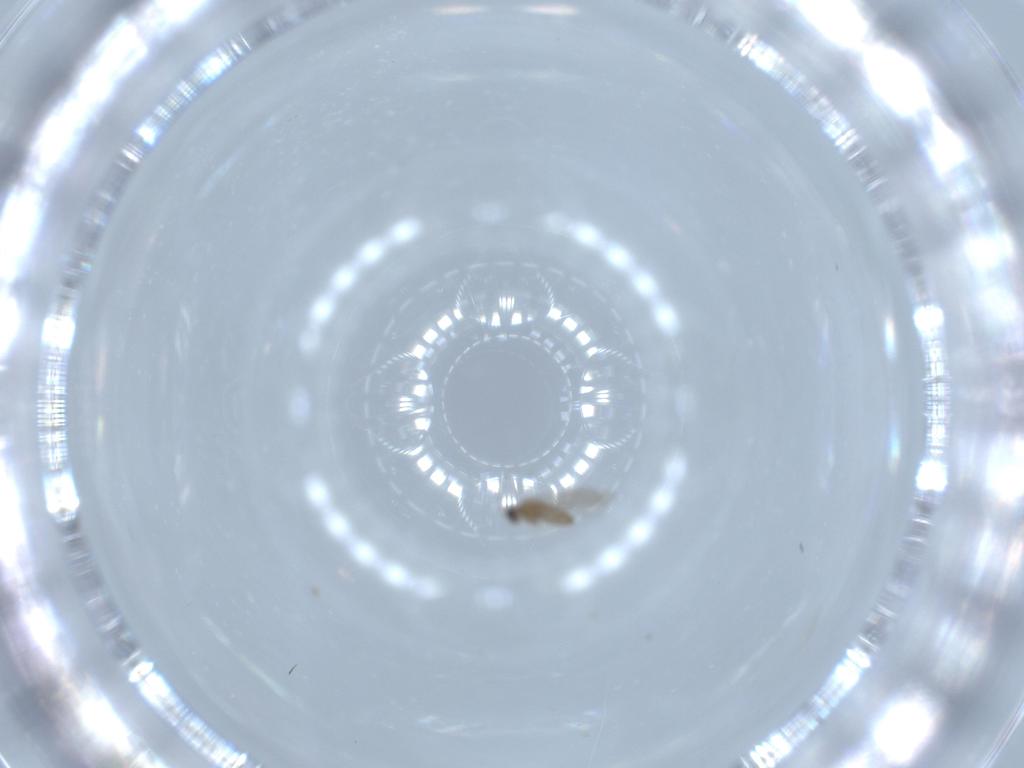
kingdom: Animalia
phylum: Arthropoda
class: Insecta
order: Diptera
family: Cecidomyiidae
